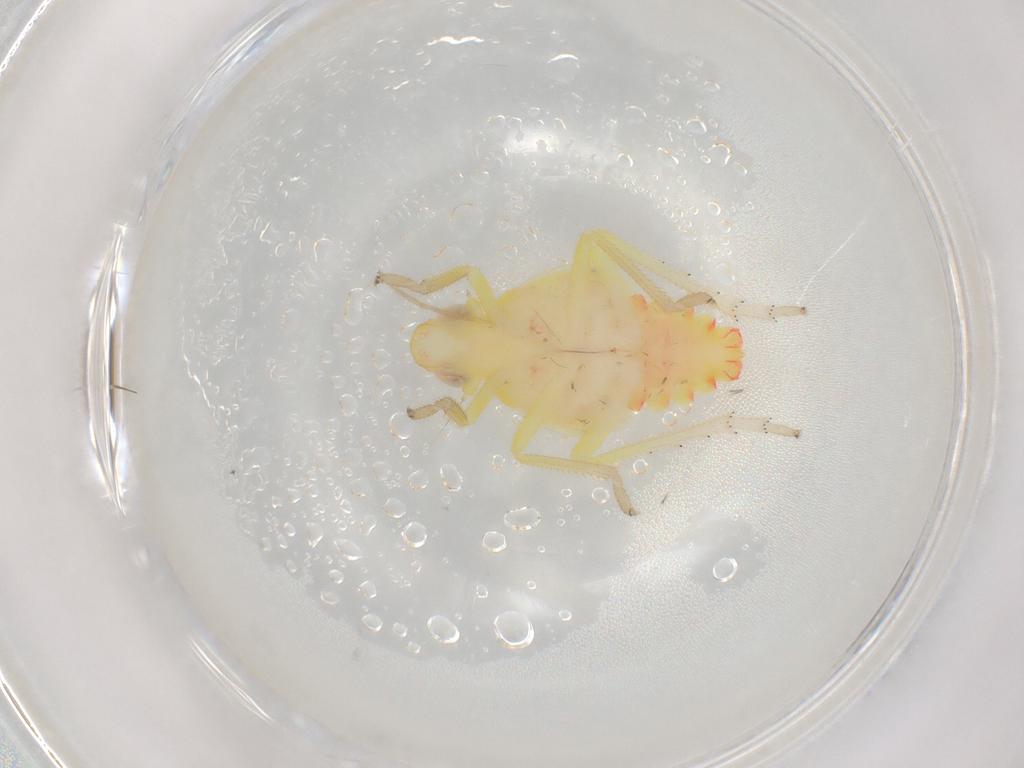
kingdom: Animalia
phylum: Arthropoda
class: Insecta
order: Hemiptera
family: Tropiduchidae
